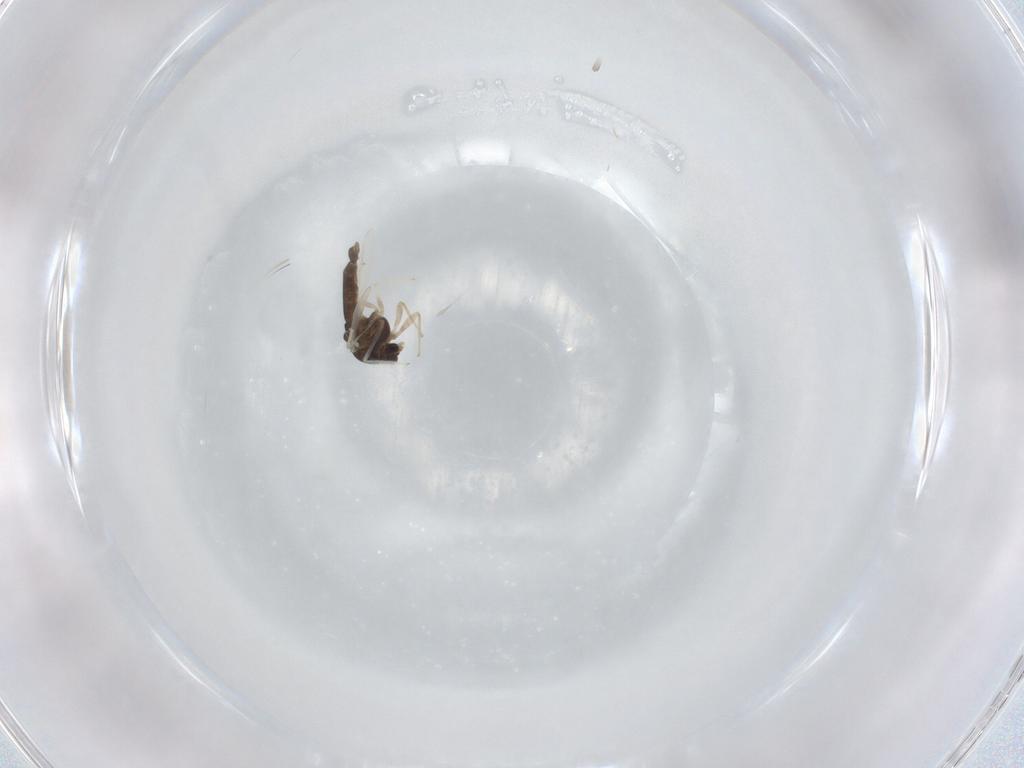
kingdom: Animalia
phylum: Arthropoda
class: Insecta
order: Diptera
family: Chironomidae
